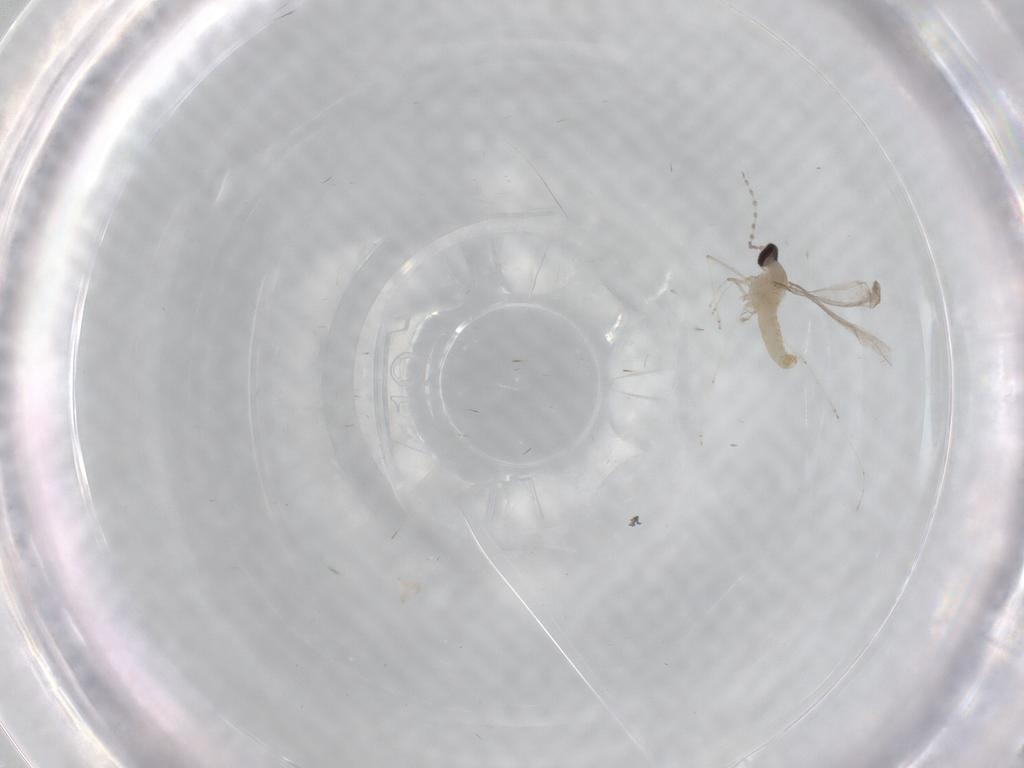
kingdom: Animalia
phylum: Arthropoda
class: Insecta
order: Diptera
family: Cecidomyiidae
